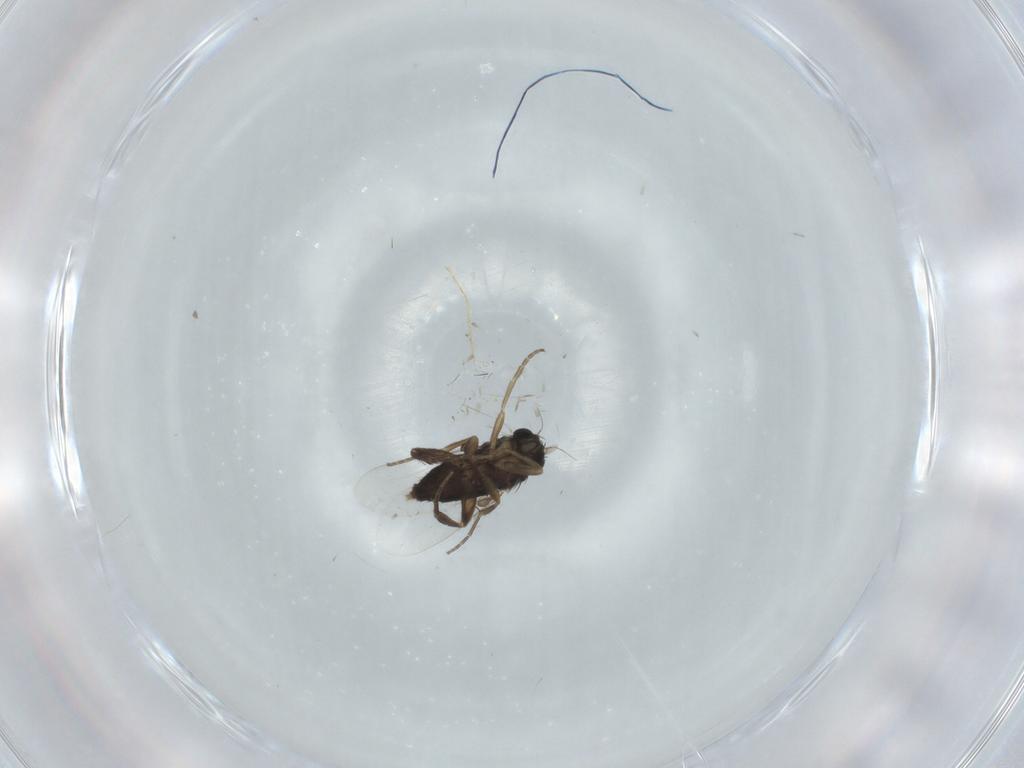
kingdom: Animalia
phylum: Arthropoda
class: Insecta
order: Diptera
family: Phoridae
